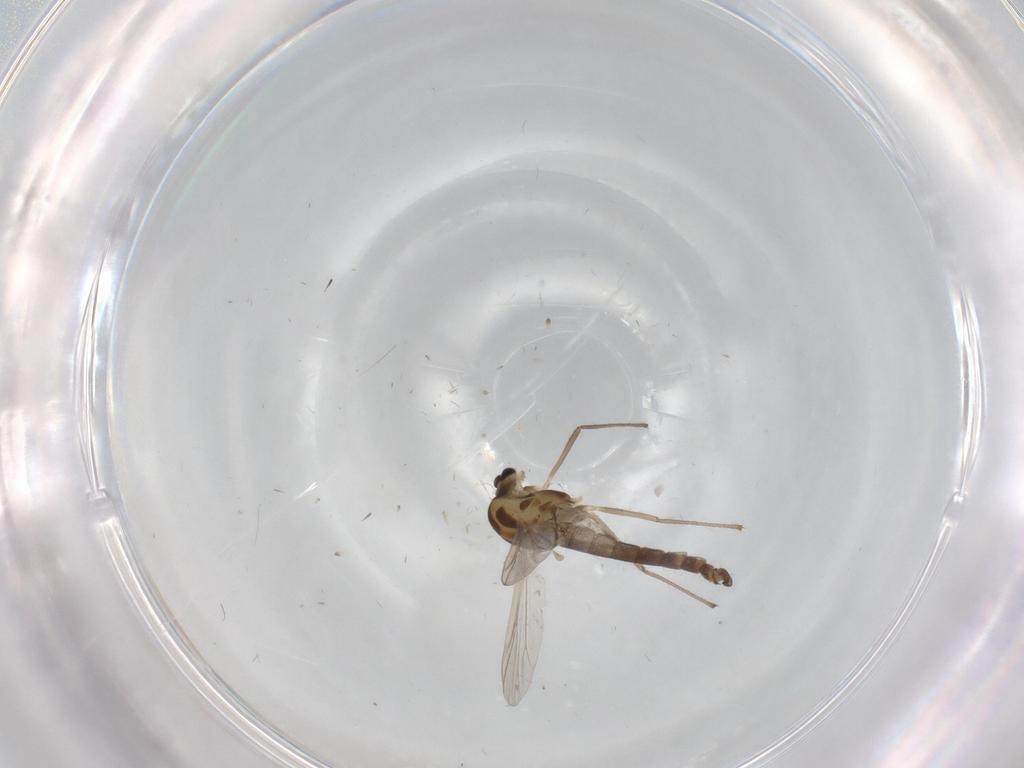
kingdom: Animalia
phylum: Arthropoda
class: Insecta
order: Diptera
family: Chironomidae
